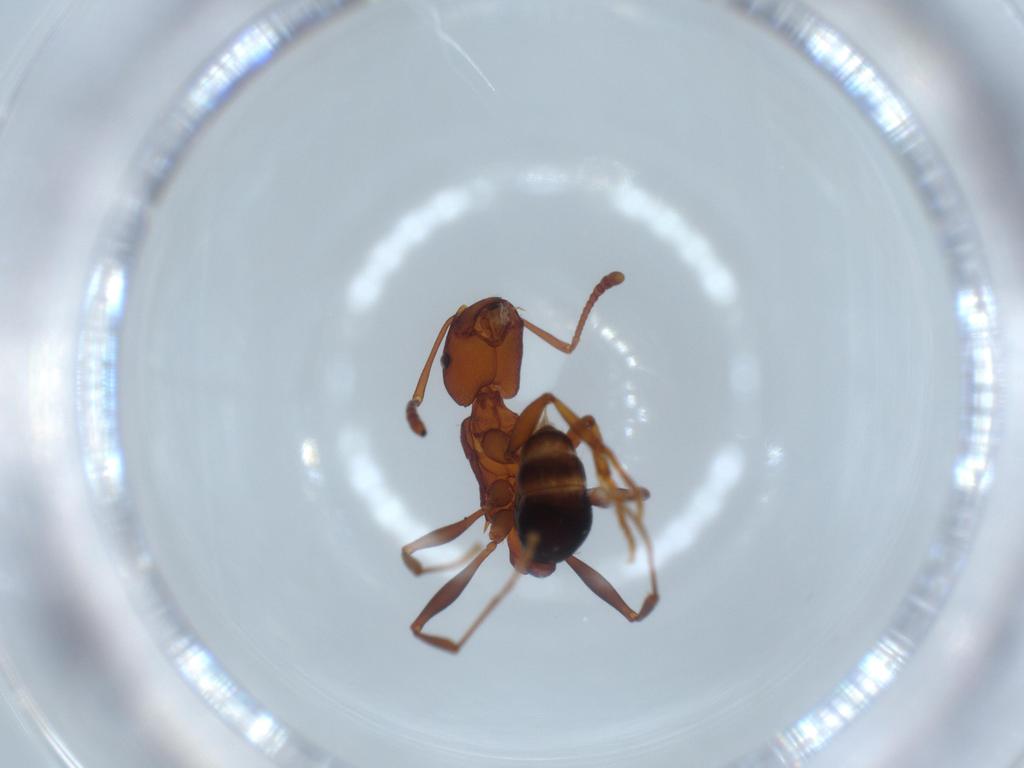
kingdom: Animalia
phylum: Arthropoda
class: Insecta
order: Hymenoptera
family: Formicidae
